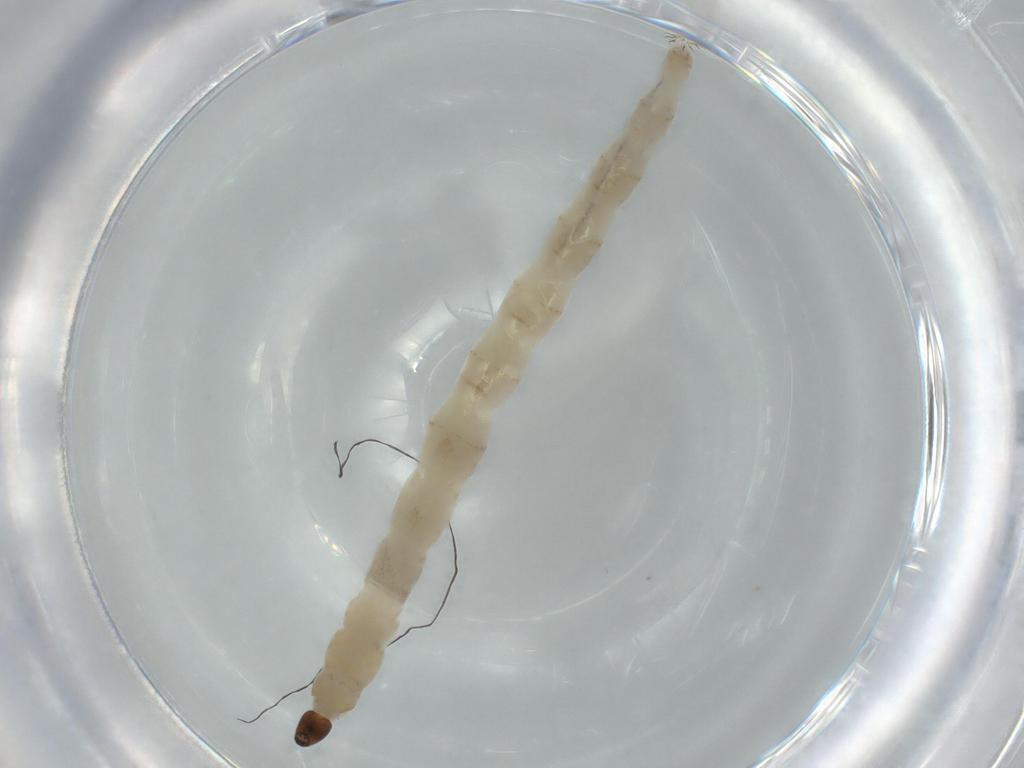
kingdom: Animalia
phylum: Arthropoda
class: Insecta
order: Diptera
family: Ceratopogonidae
